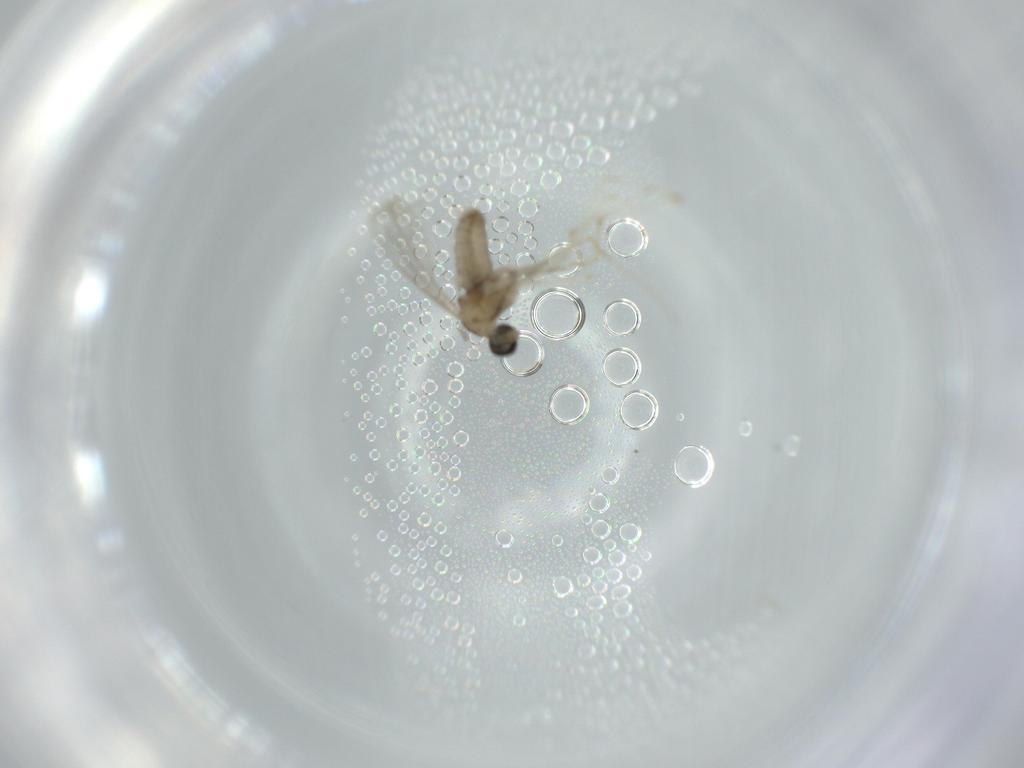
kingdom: Animalia
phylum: Arthropoda
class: Insecta
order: Diptera
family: Cecidomyiidae
